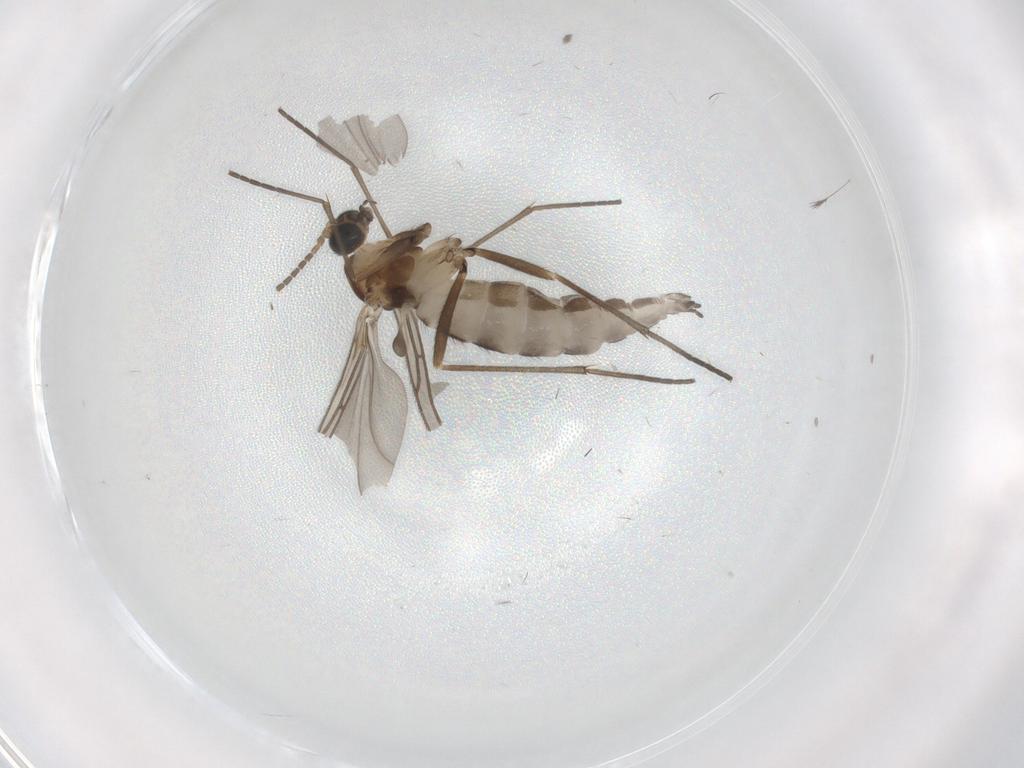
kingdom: Animalia
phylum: Arthropoda
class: Insecta
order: Diptera
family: Sciaridae
